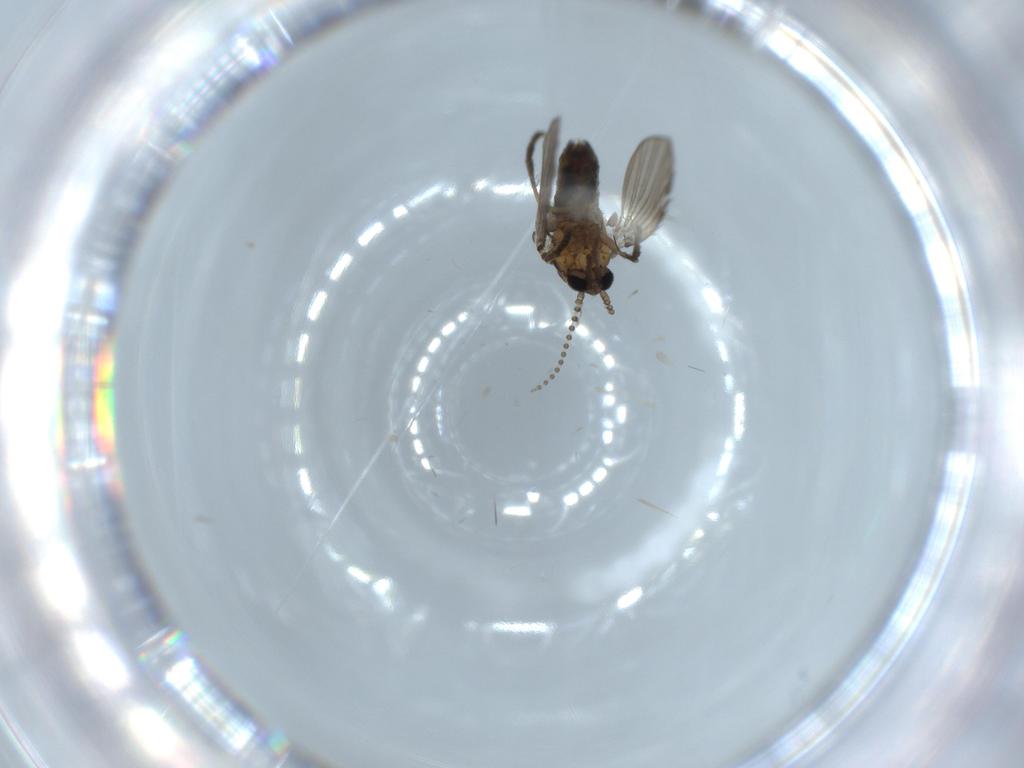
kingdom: Animalia
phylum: Arthropoda
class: Insecta
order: Diptera
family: Psychodidae
